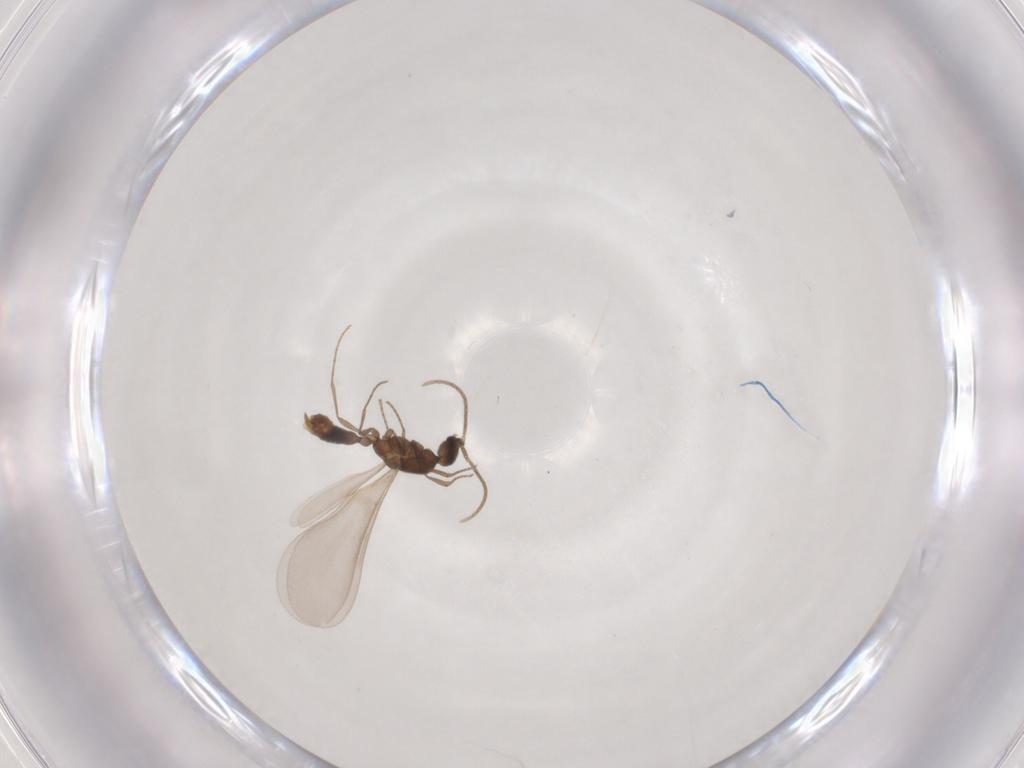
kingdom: Animalia
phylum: Arthropoda
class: Insecta
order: Hymenoptera
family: Formicidae
